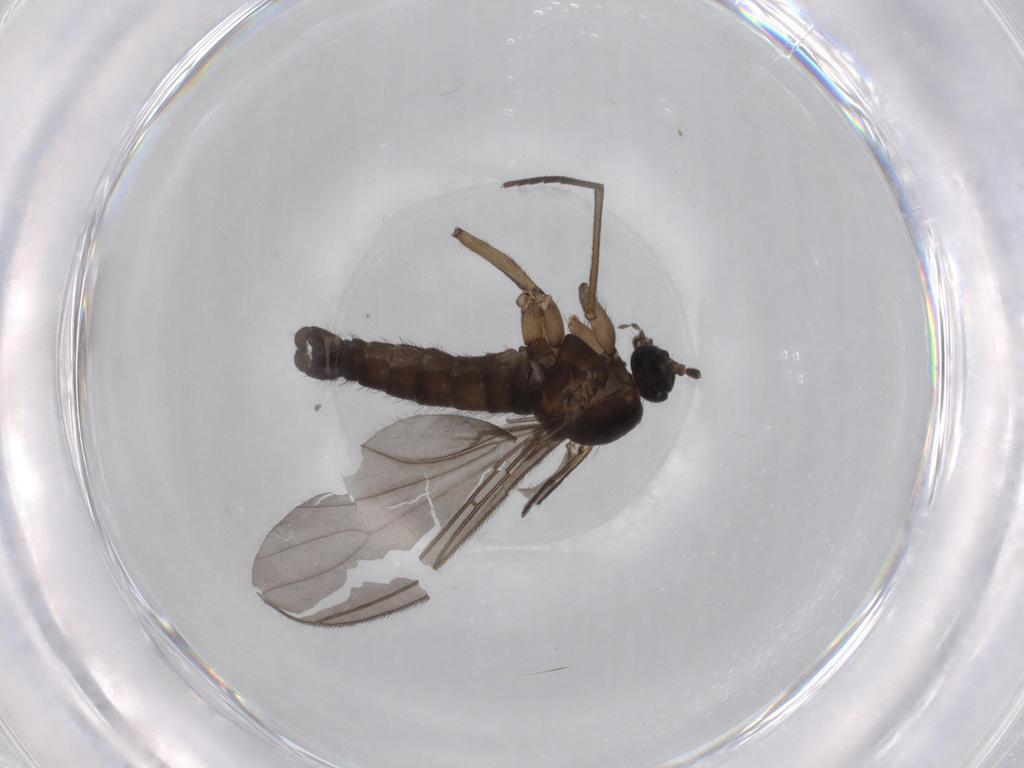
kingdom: Animalia
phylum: Arthropoda
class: Insecta
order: Diptera
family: Sciaridae
